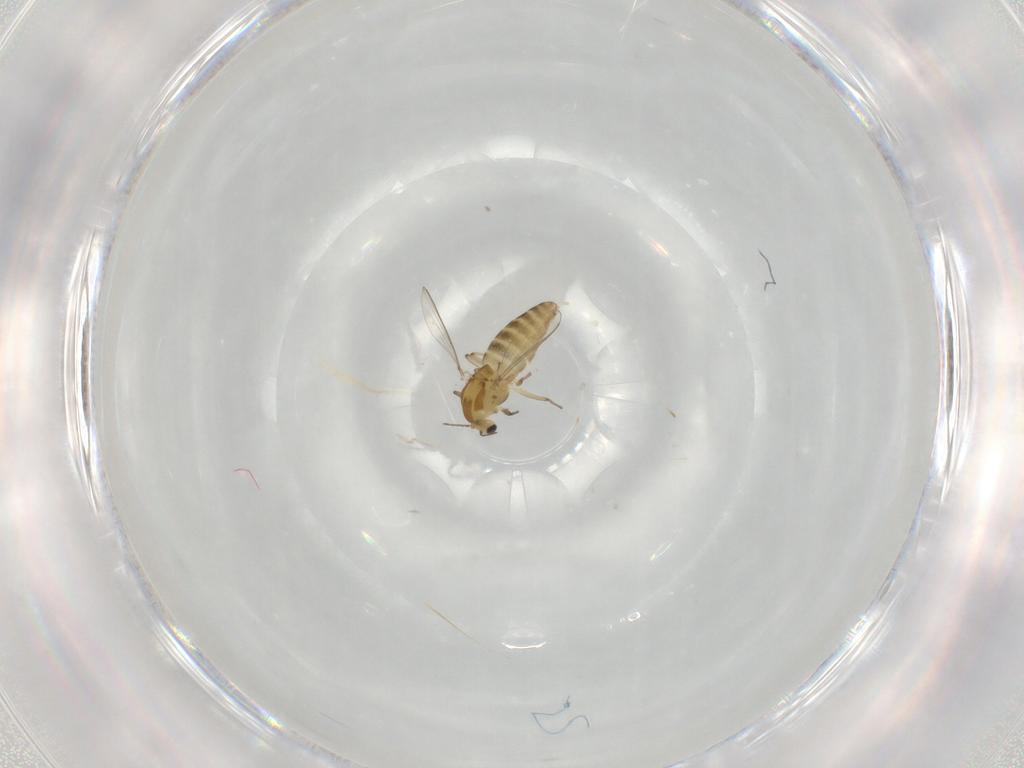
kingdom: Animalia
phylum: Arthropoda
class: Insecta
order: Diptera
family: Chironomidae
